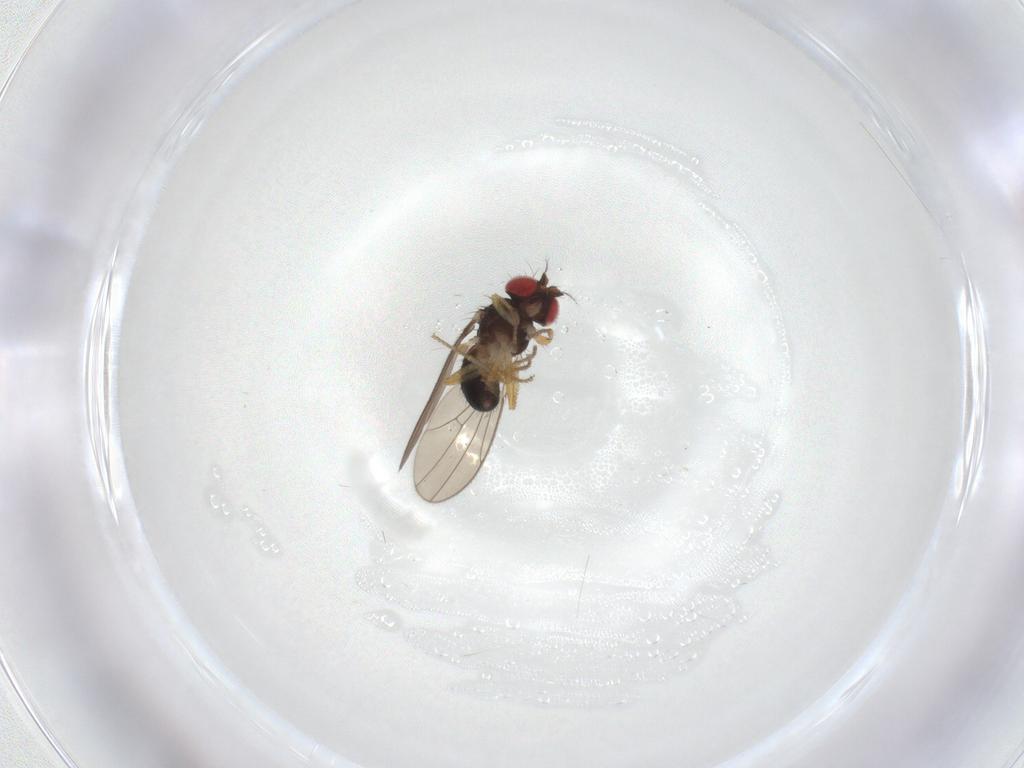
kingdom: Animalia
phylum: Arthropoda
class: Insecta
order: Diptera
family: Drosophilidae
